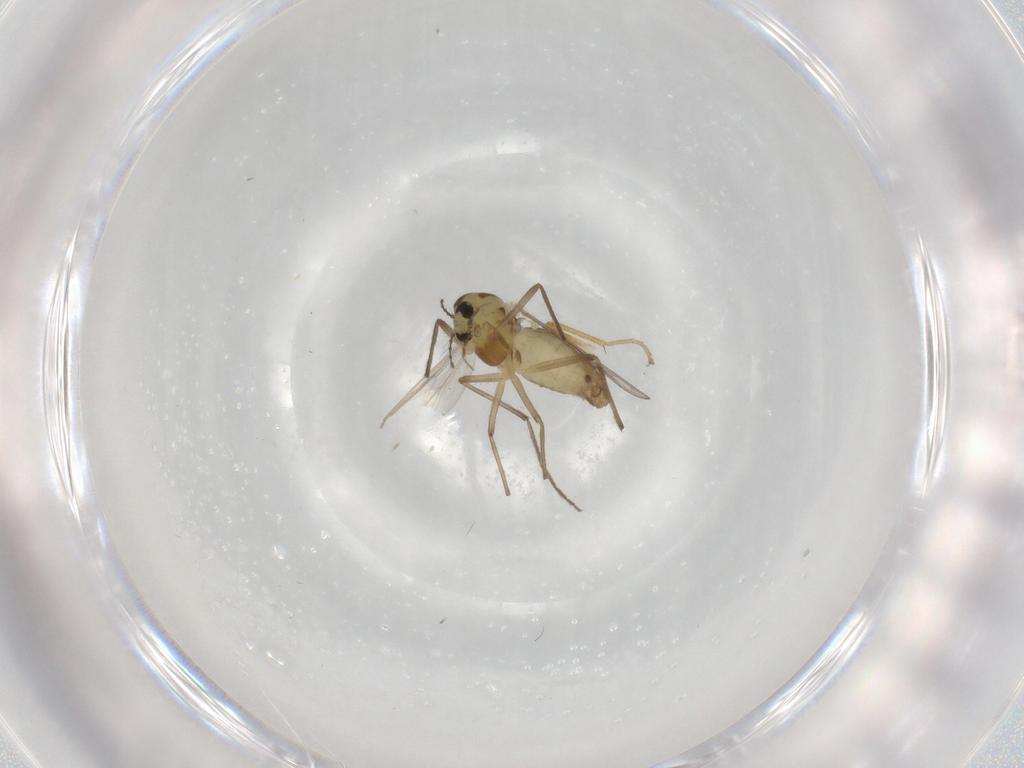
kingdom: Animalia
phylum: Arthropoda
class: Insecta
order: Diptera
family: Chironomidae
